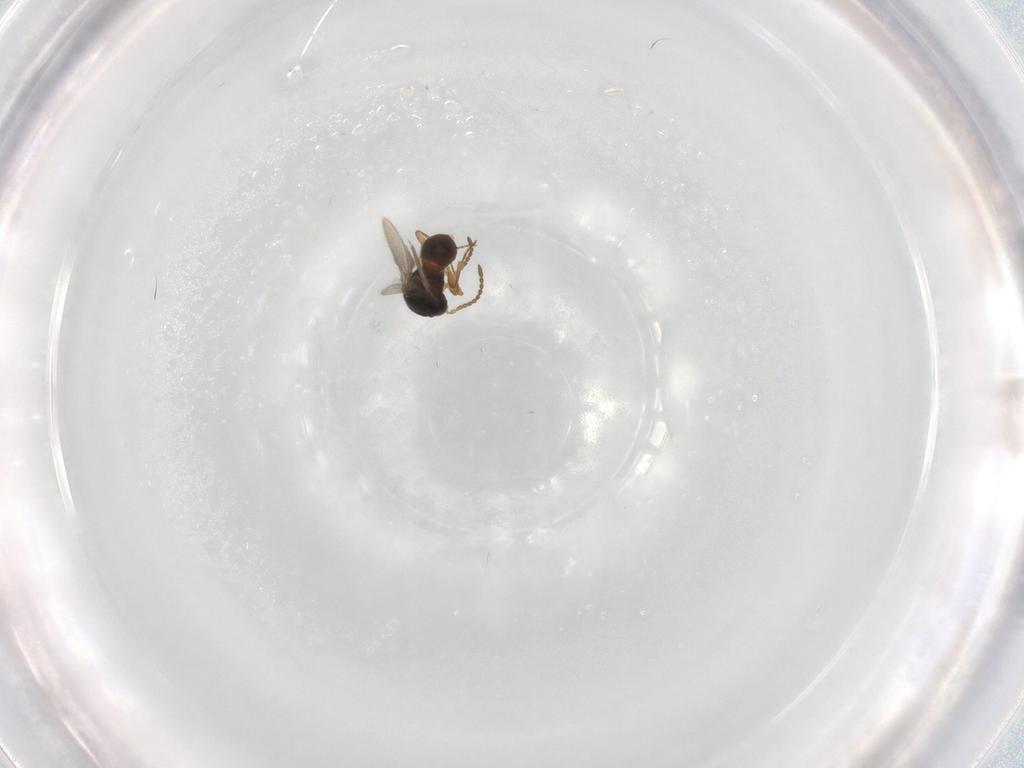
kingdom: Animalia
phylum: Arthropoda
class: Insecta
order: Hymenoptera
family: Scelionidae
